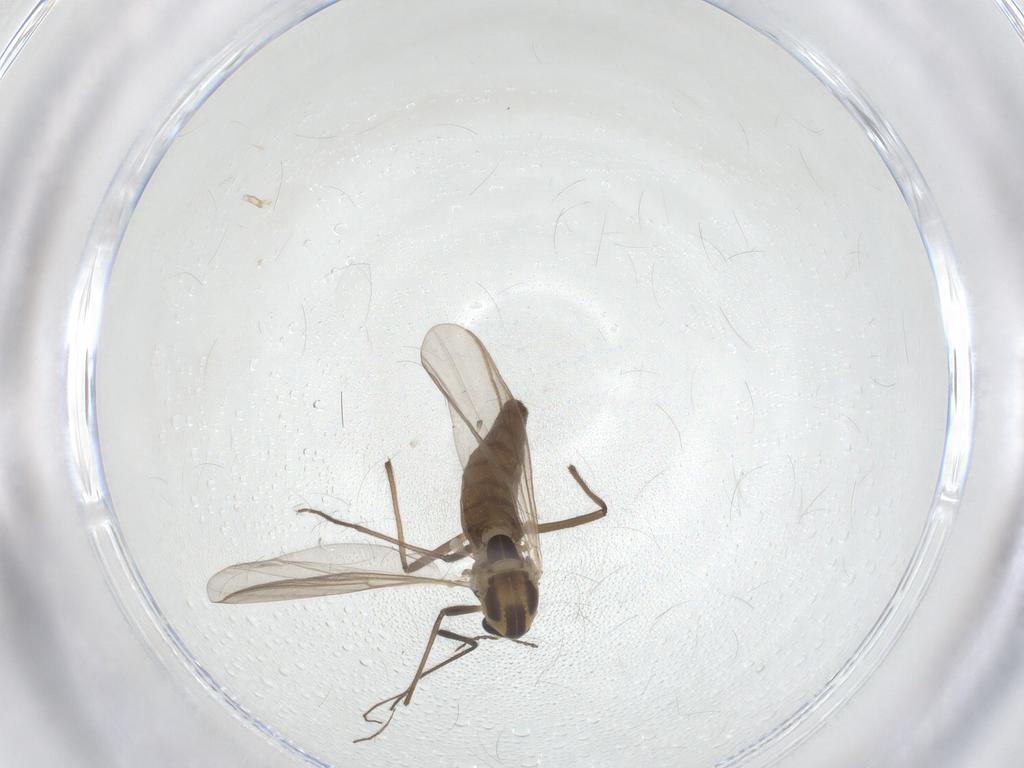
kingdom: Animalia
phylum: Arthropoda
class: Insecta
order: Diptera
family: Chironomidae
